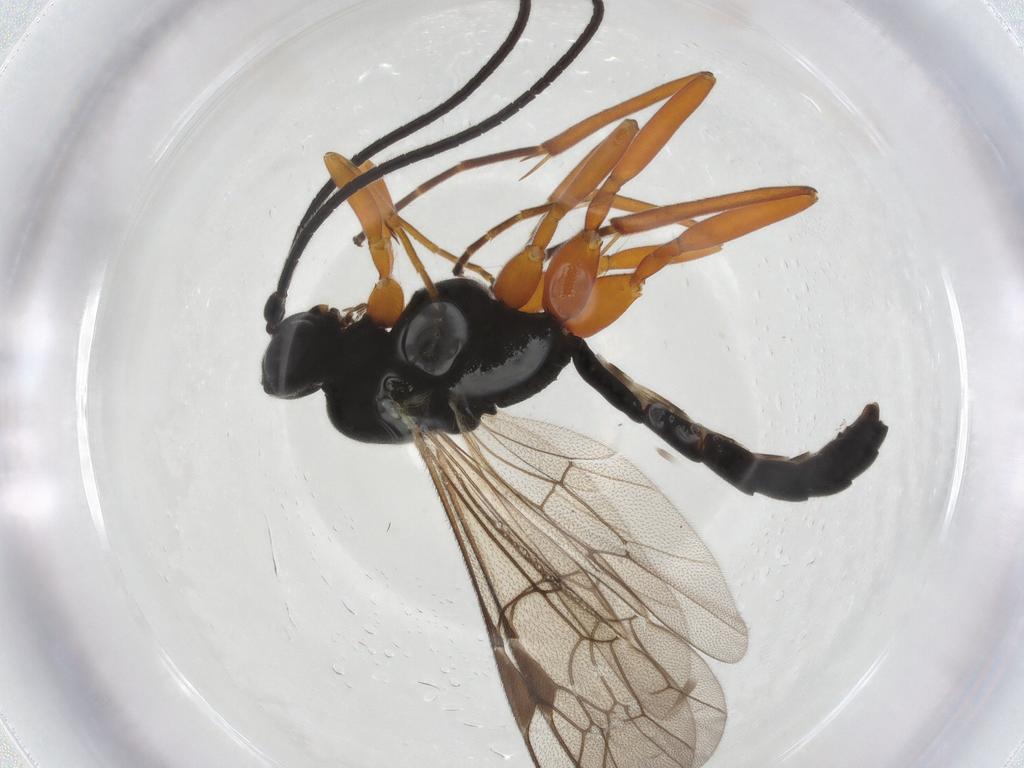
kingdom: Animalia
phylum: Arthropoda
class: Insecta
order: Hymenoptera
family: Ichneumonidae
